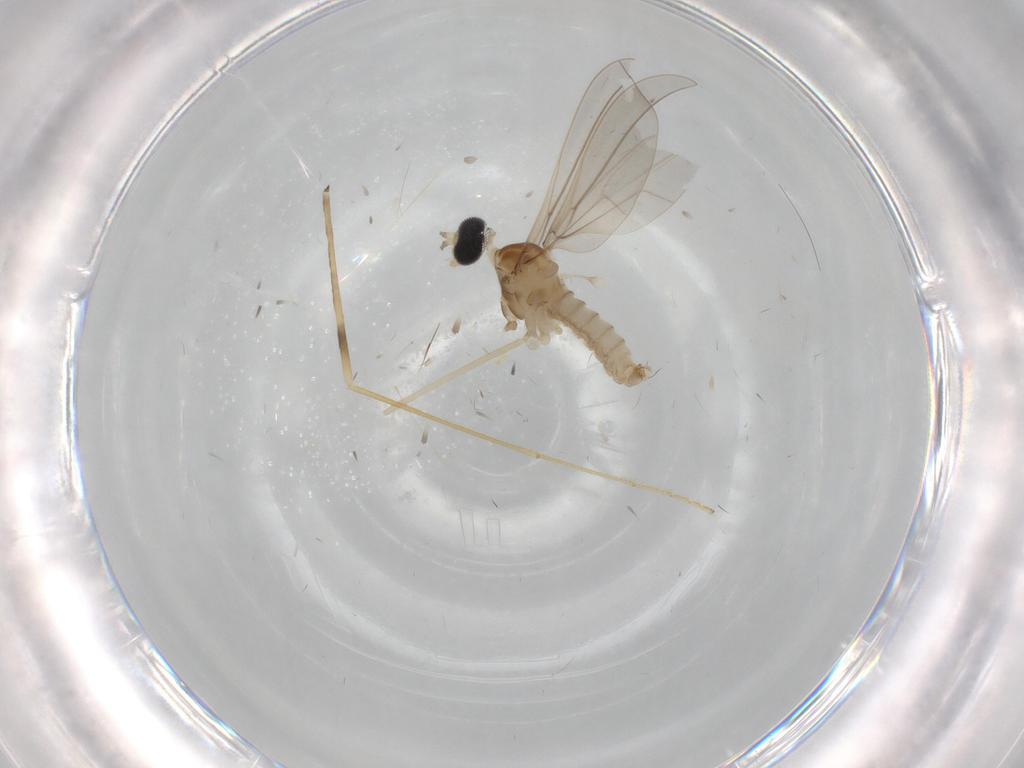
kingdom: Animalia
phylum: Arthropoda
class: Insecta
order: Diptera
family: Cecidomyiidae
